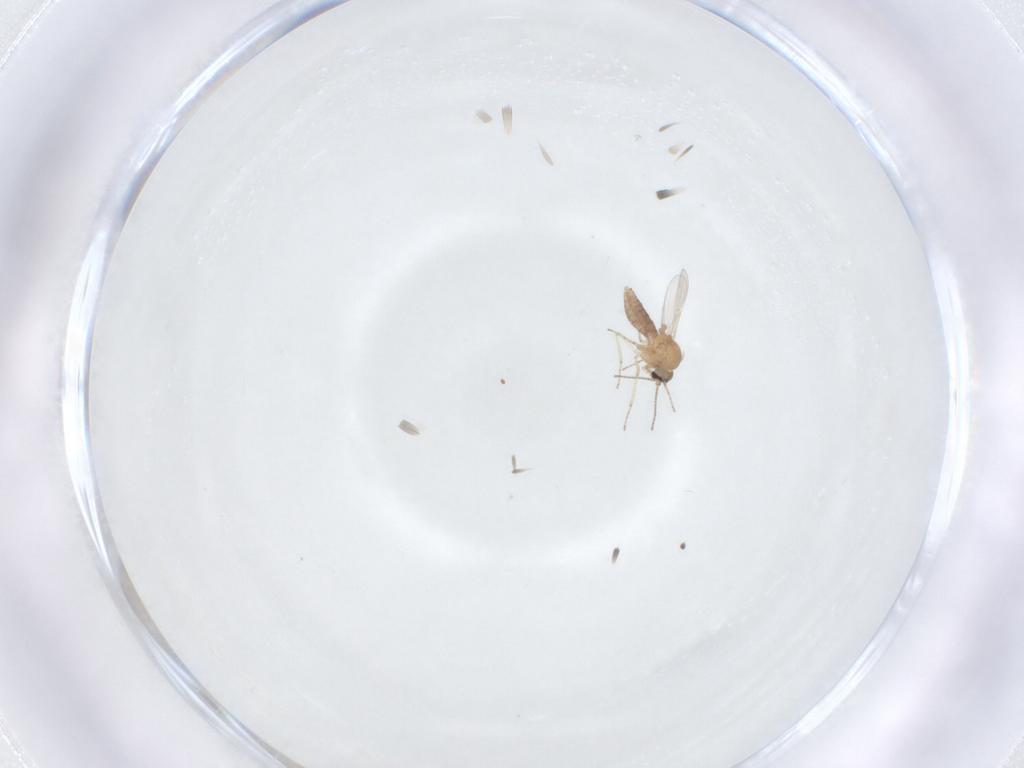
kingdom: Animalia
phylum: Arthropoda
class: Insecta
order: Diptera
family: Ceratopogonidae
